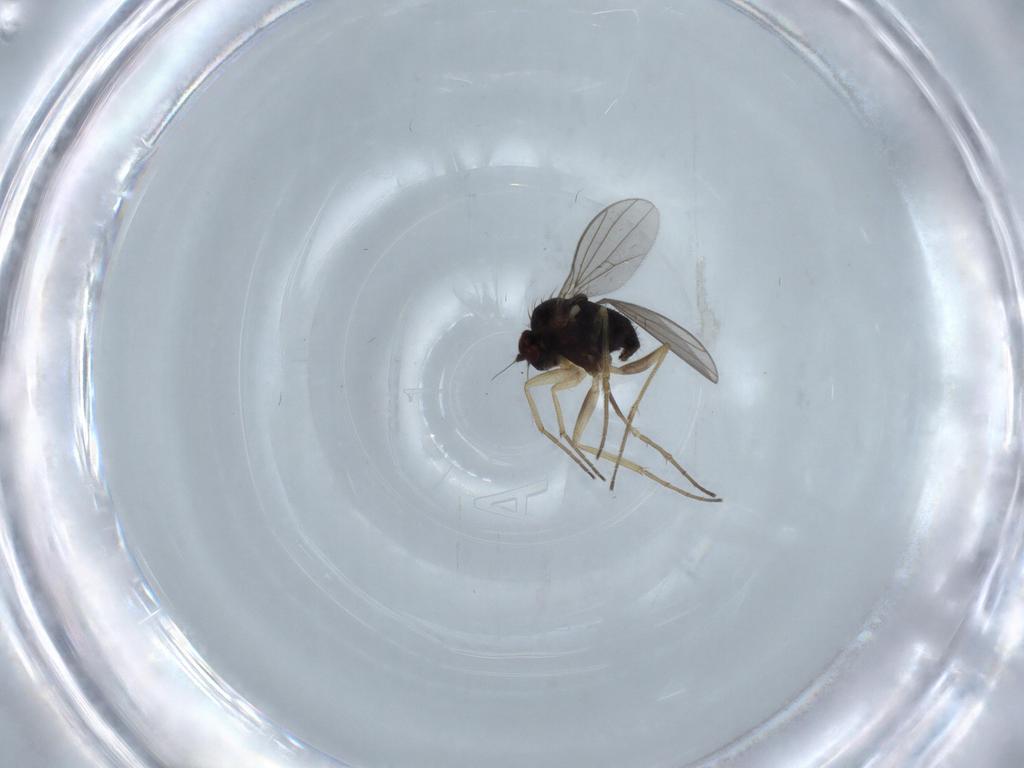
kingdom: Animalia
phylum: Arthropoda
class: Insecta
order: Diptera
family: Dolichopodidae
